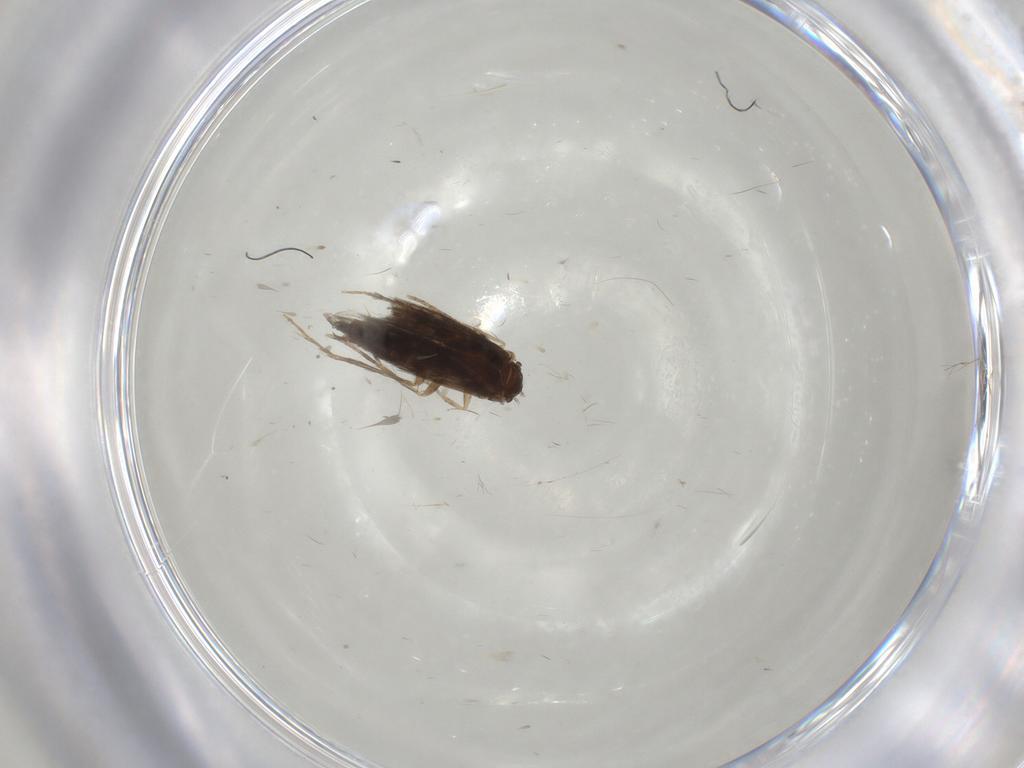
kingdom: Animalia
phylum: Arthropoda
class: Insecta
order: Trichoptera
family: Hydroptilidae
